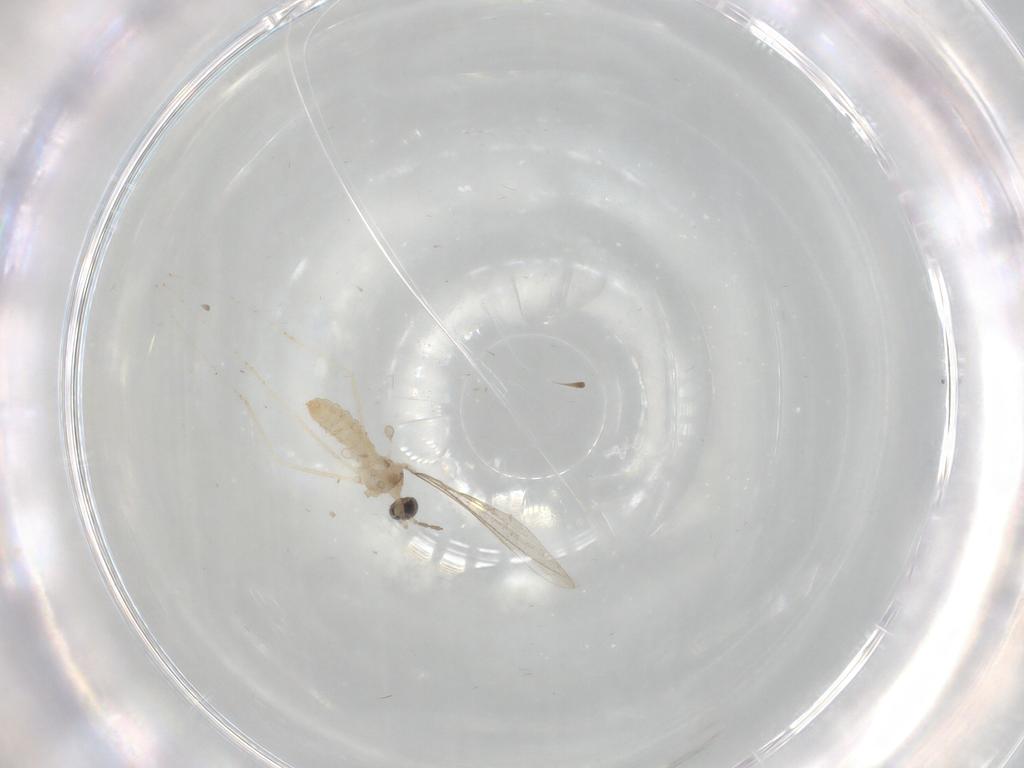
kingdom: Animalia
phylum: Arthropoda
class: Insecta
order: Diptera
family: Cecidomyiidae
